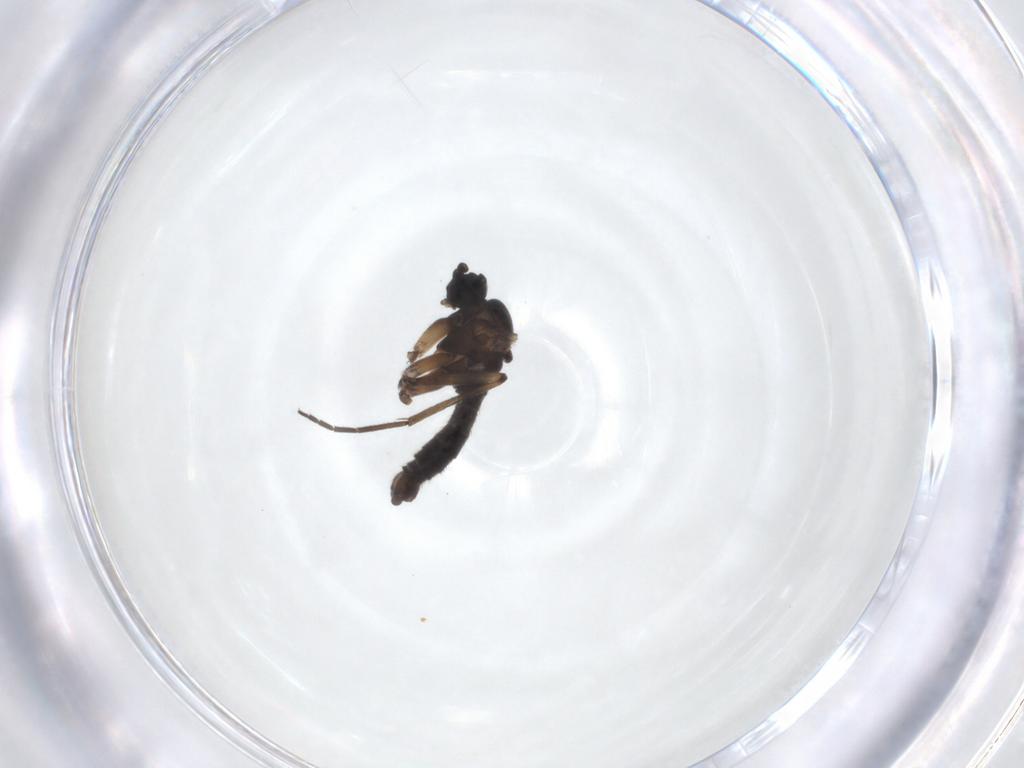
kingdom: Animalia
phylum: Arthropoda
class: Insecta
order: Diptera
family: Sciaridae
